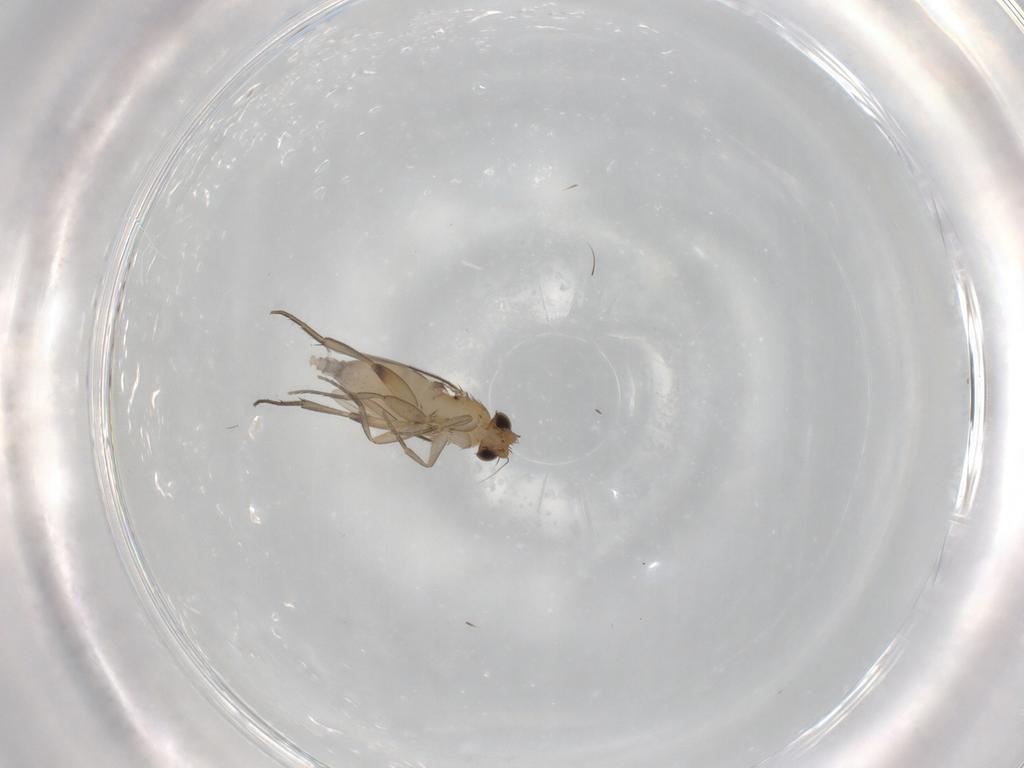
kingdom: Animalia
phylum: Arthropoda
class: Insecta
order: Diptera
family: Phoridae
